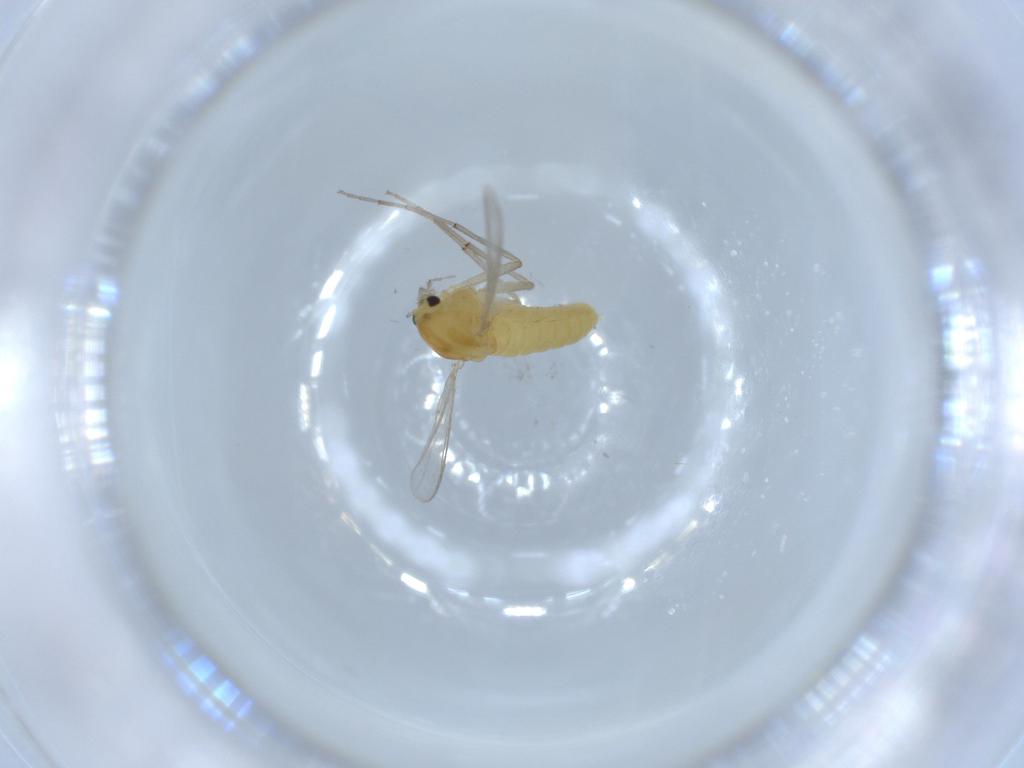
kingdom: Animalia
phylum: Arthropoda
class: Insecta
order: Diptera
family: Chironomidae
